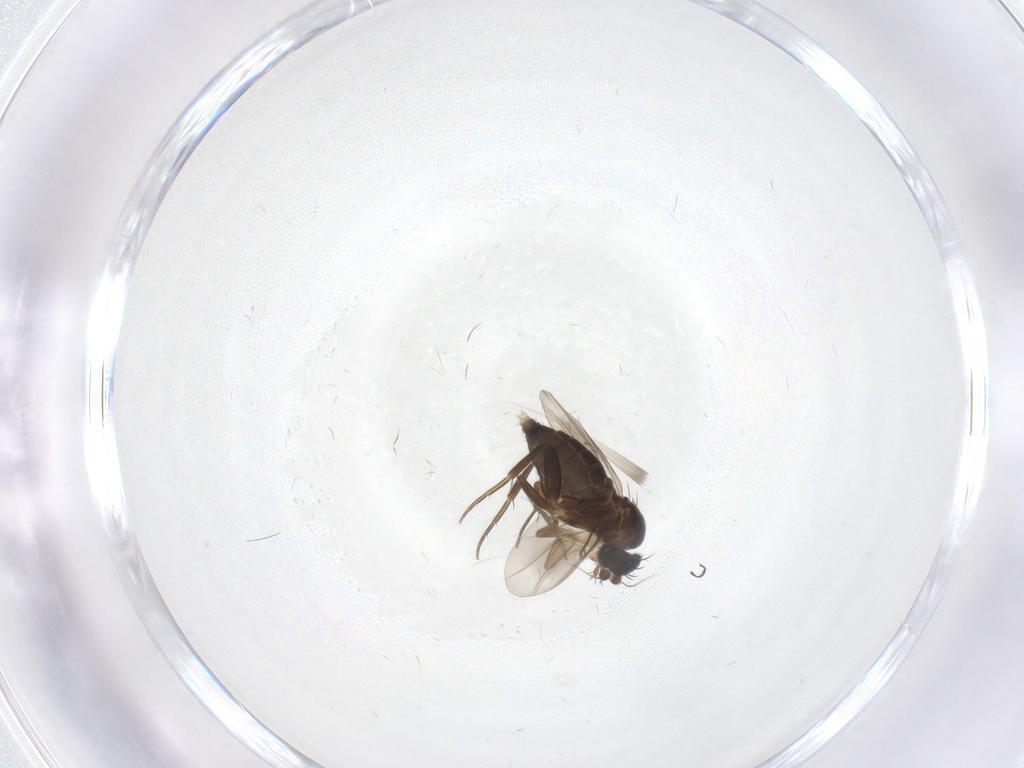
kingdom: Animalia
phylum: Arthropoda
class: Insecta
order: Diptera
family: Phoridae
